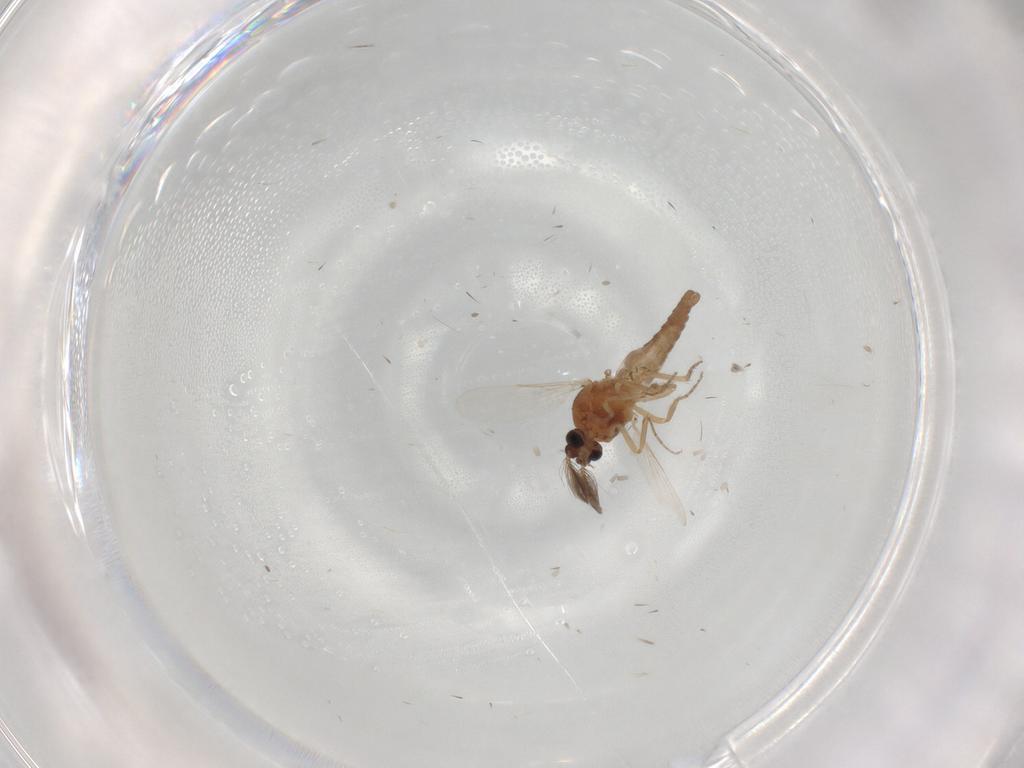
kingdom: Animalia
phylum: Arthropoda
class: Insecta
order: Diptera
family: Ceratopogonidae
